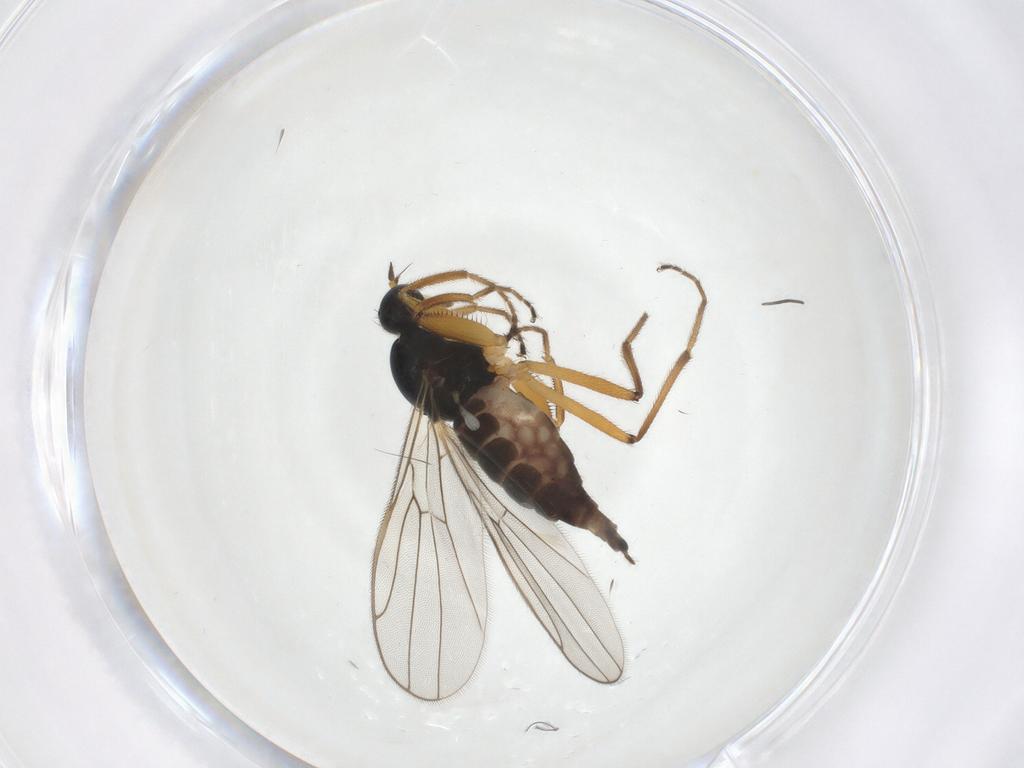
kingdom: Animalia
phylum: Arthropoda
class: Insecta
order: Diptera
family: Hybotidae
